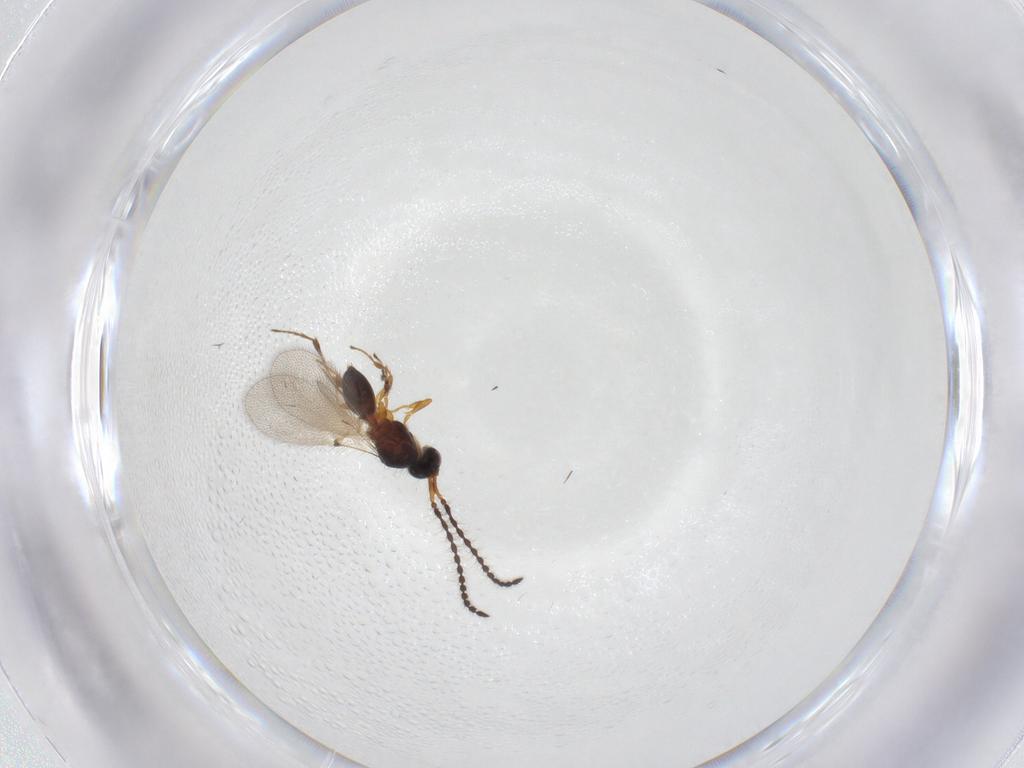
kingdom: Animalia
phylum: Arthropoda
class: Insecta
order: Hymenoptera
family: Diapriidae
